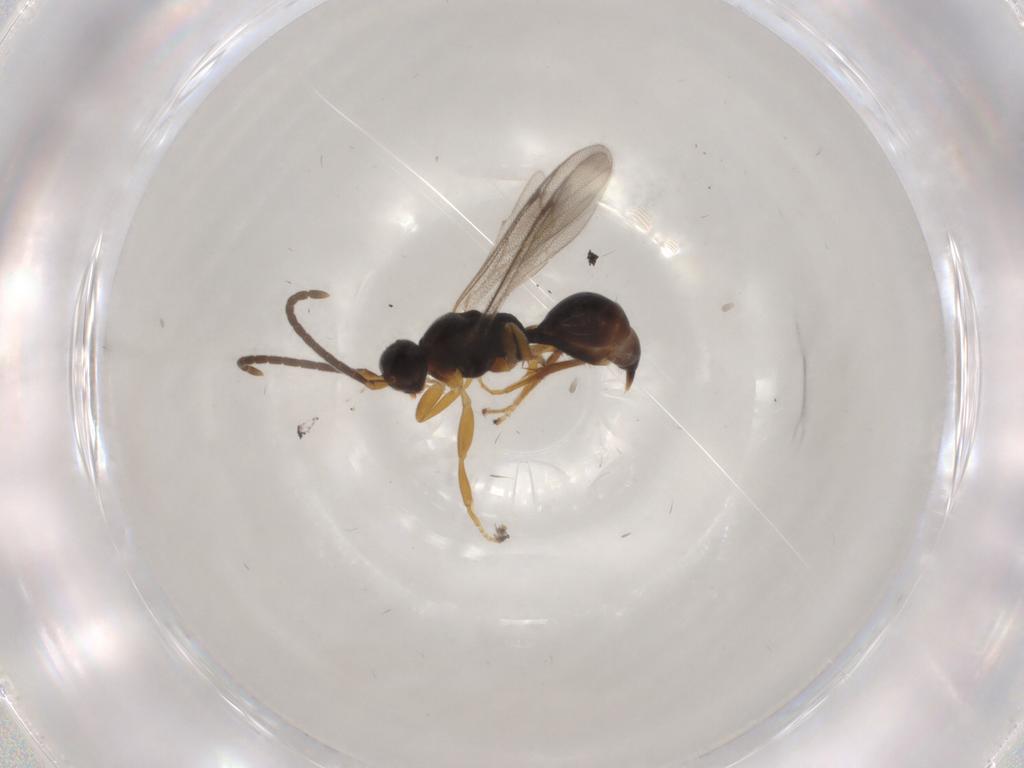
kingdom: Animalia
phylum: Arthropoda
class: Insecta
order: Hymenoptera
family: Proctotrupidae
